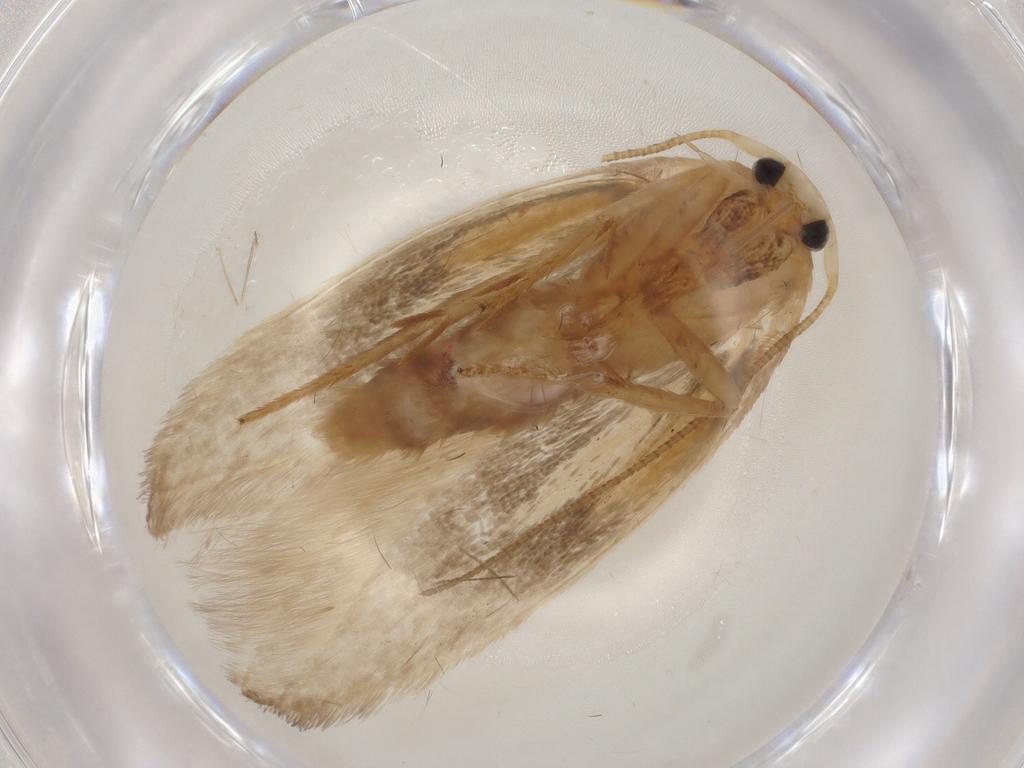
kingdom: Animalia
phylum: Arthropoda
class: Insecta
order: Lepidoptera
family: Geometridae
